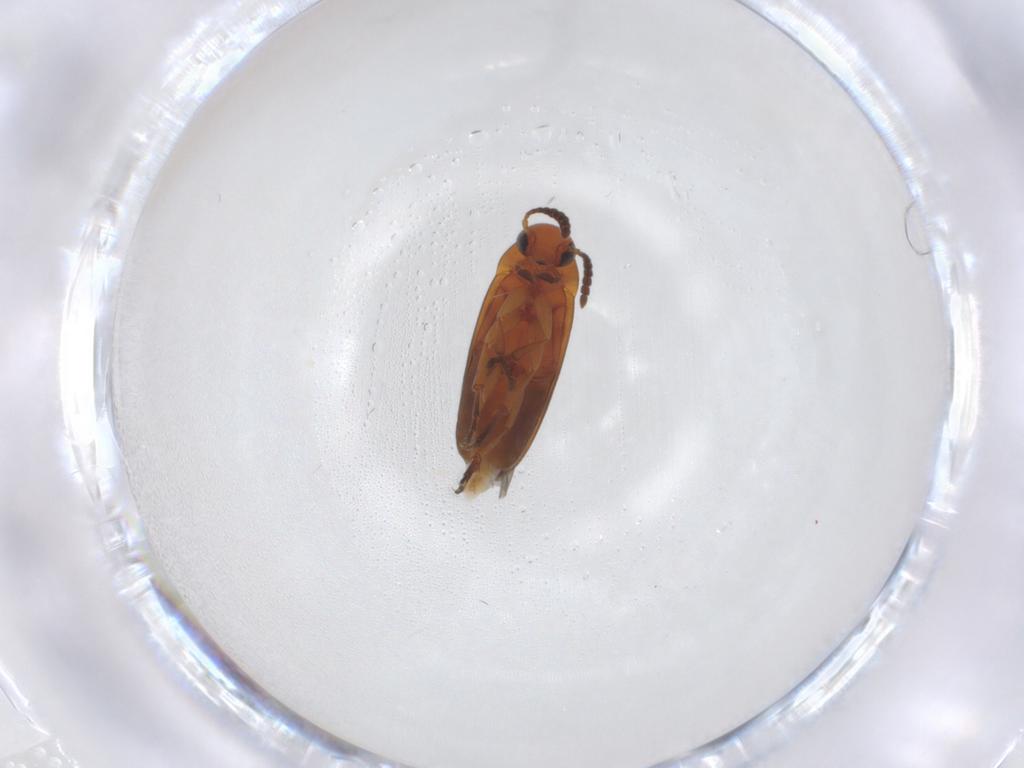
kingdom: Animalia
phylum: Arthropoda
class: Insecta
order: Coleoptera
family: Scraptiidae
